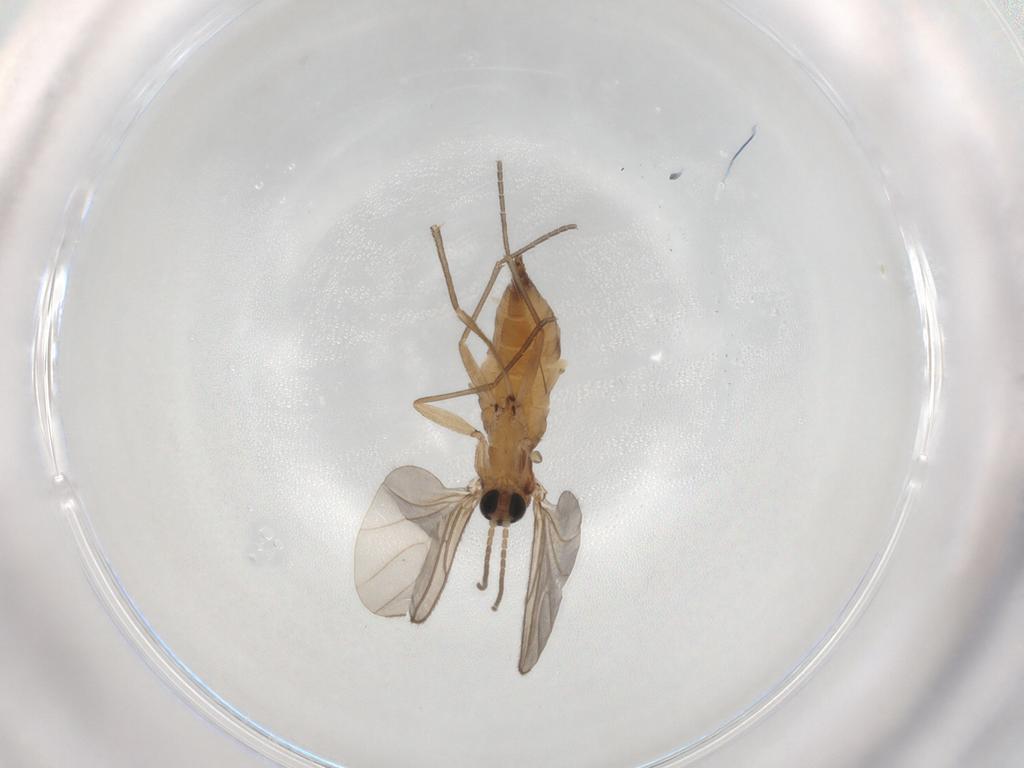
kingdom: Animalia
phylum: Arthropoda
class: Insecta
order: Diptera
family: Sciaridae
